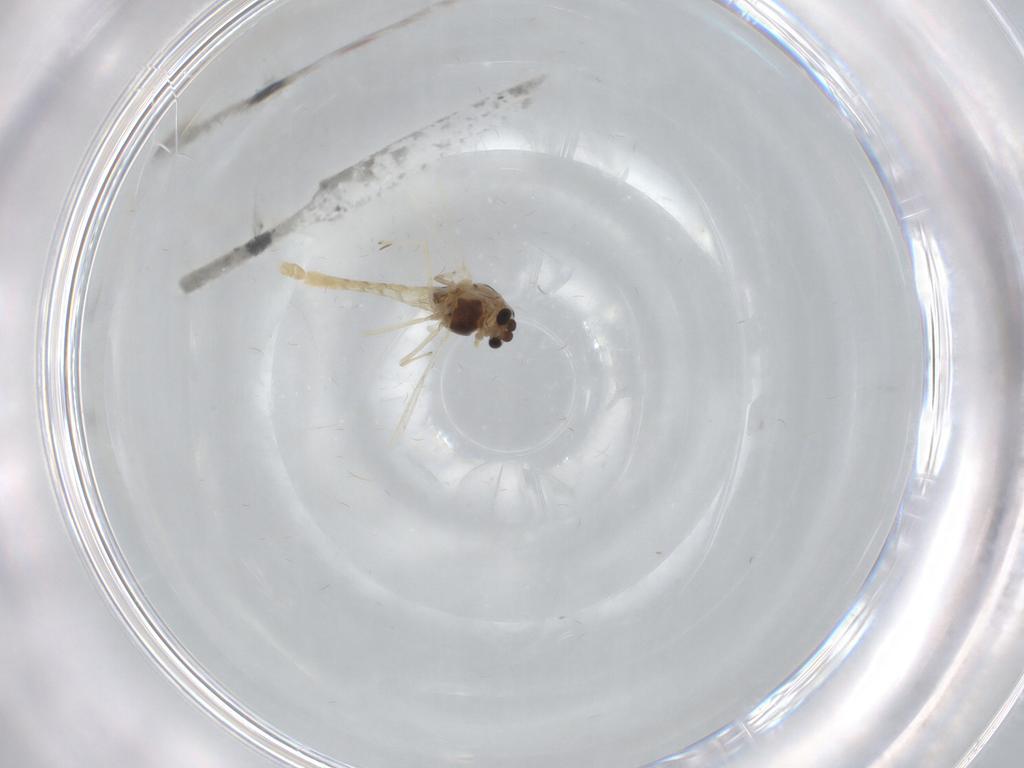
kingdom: Animalia
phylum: Arthropoda
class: Insecta
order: Diptera
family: Chironomidae
